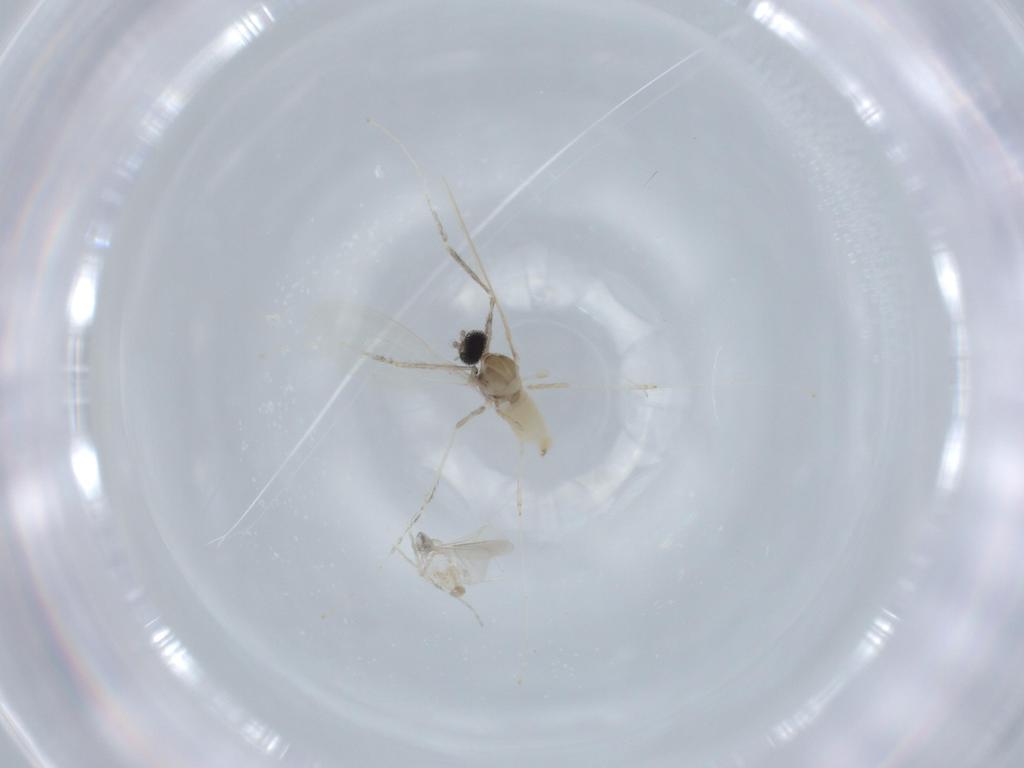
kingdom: Animalia
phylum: Arthropoda
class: Insecta
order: Diptera
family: Cecidomyiidae
